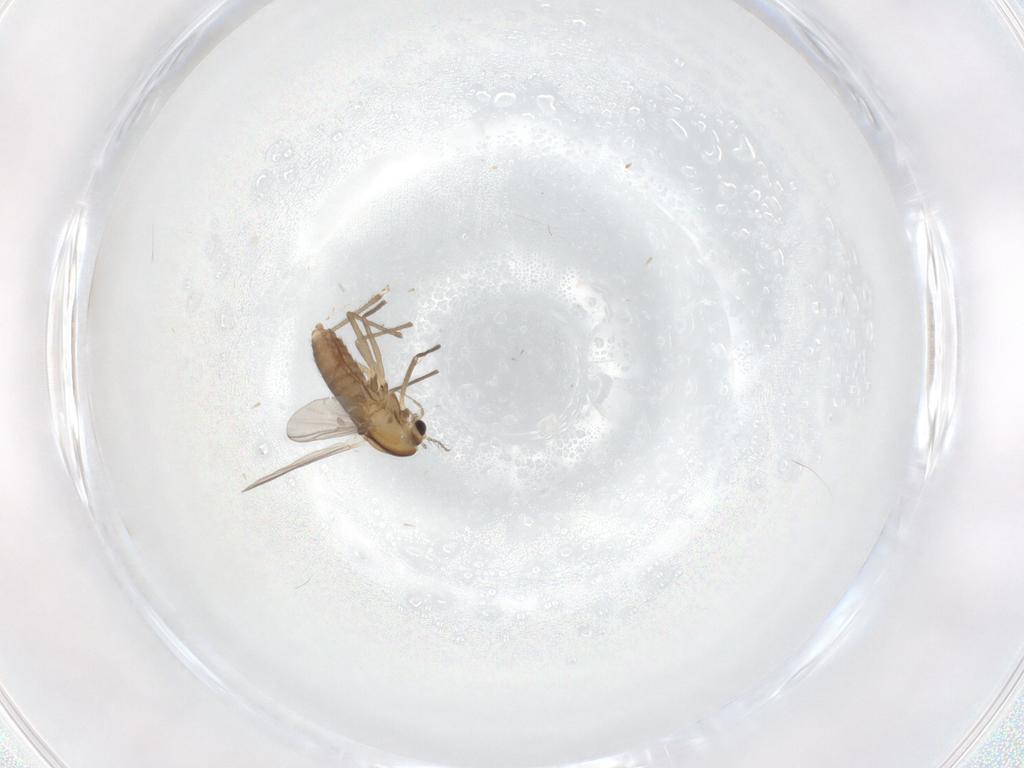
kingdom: Animalia
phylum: Arthropoda
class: Insecta
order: Diptera
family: Chironomidae
